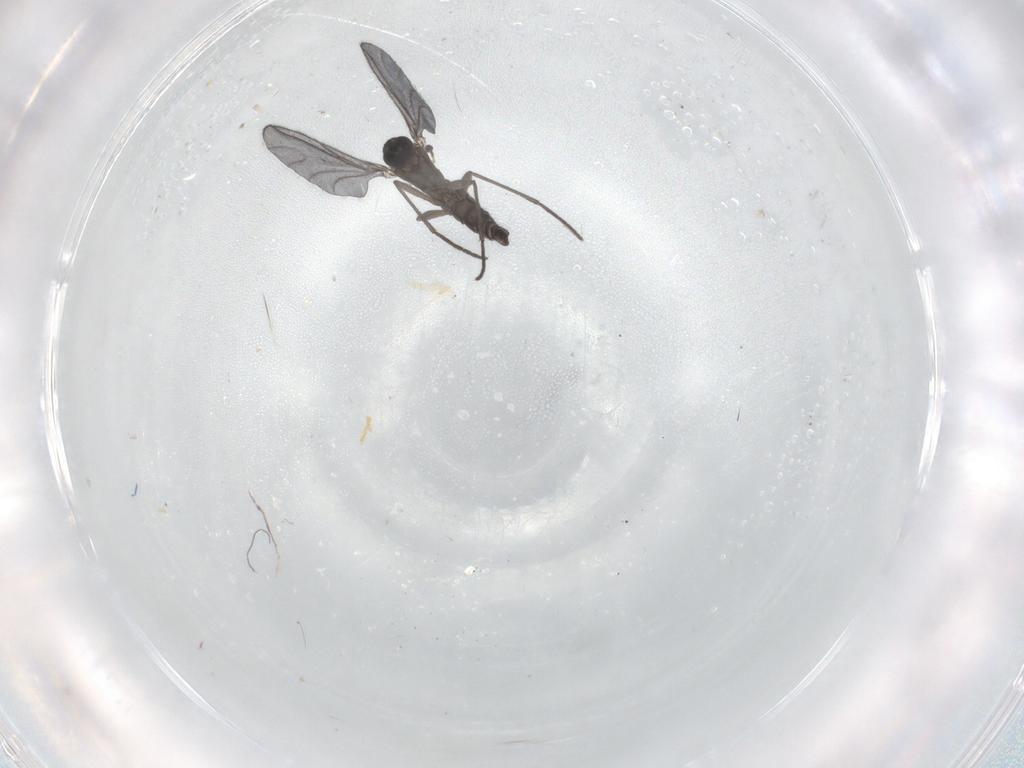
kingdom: Animalia
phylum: Arthropoda
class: Insecta
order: Diptera
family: Sciaridae
